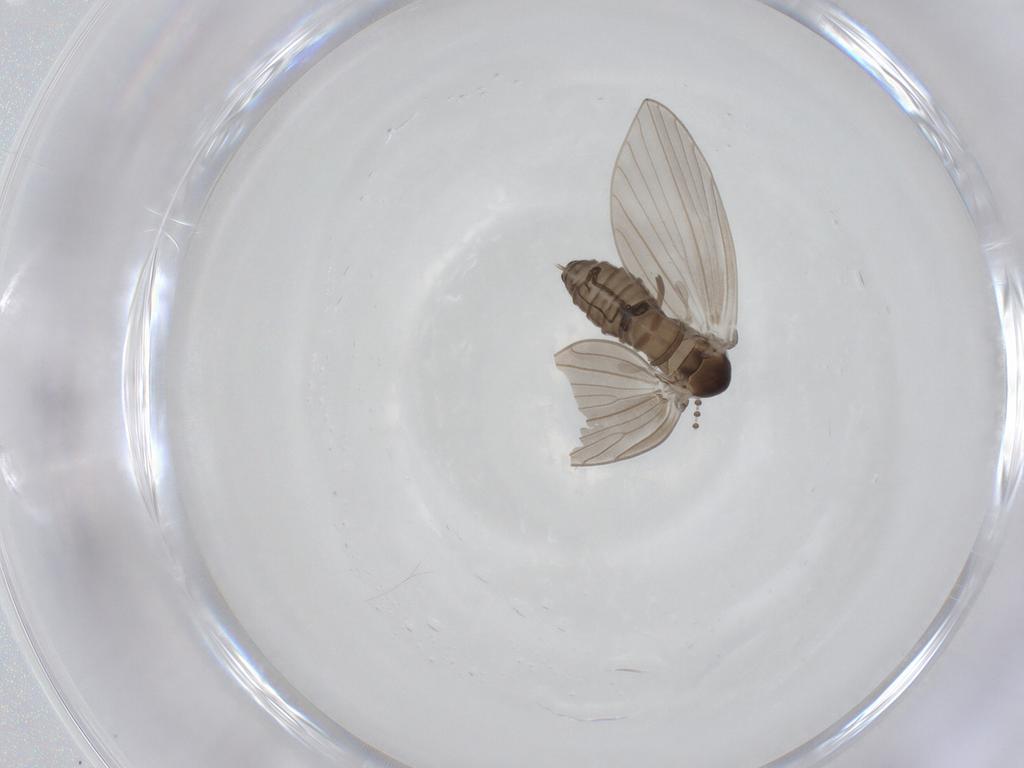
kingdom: Animalia
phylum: Arthropoda
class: Insecta
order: Diptera
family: Psychodidae
